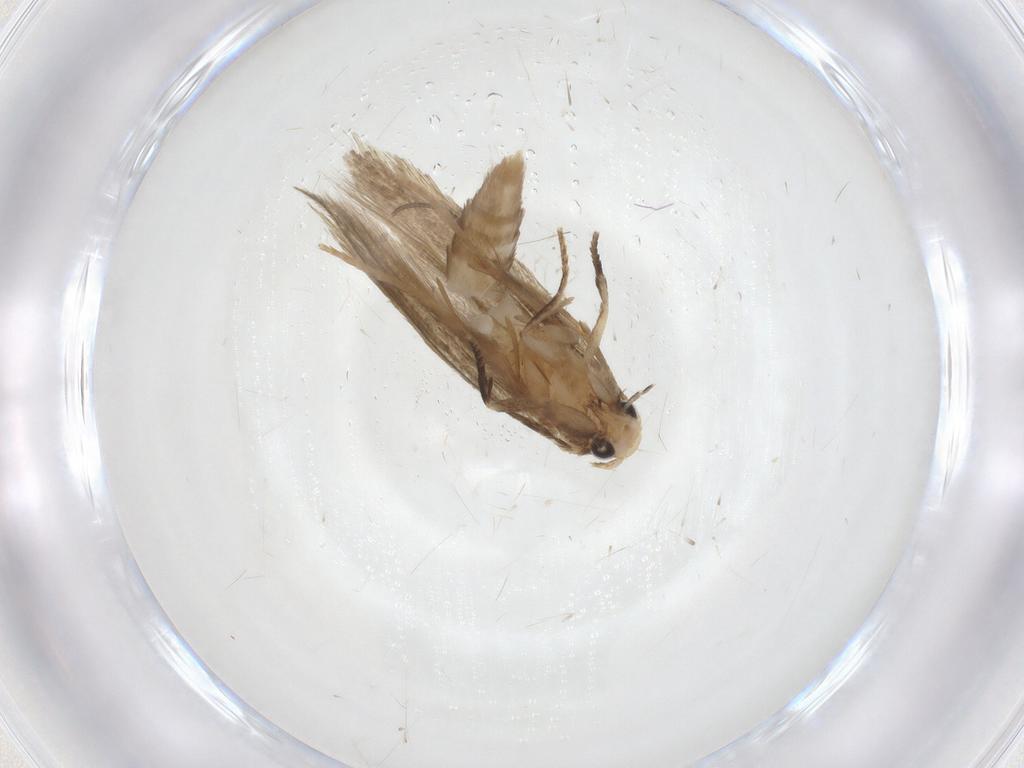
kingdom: Animalia
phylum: Arthropoda
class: Insecta
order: Lepidoptera
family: Tineidae
